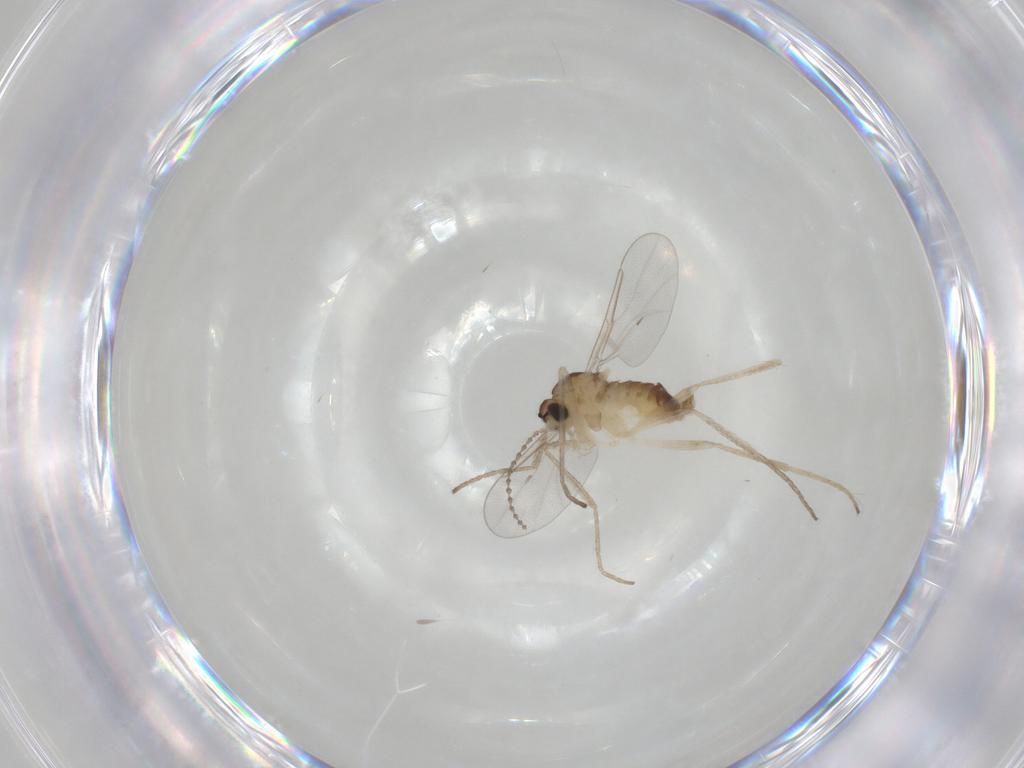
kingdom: Animalia
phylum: Arthropoda
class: Insecta
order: Diptera
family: Cecidomyiidae
